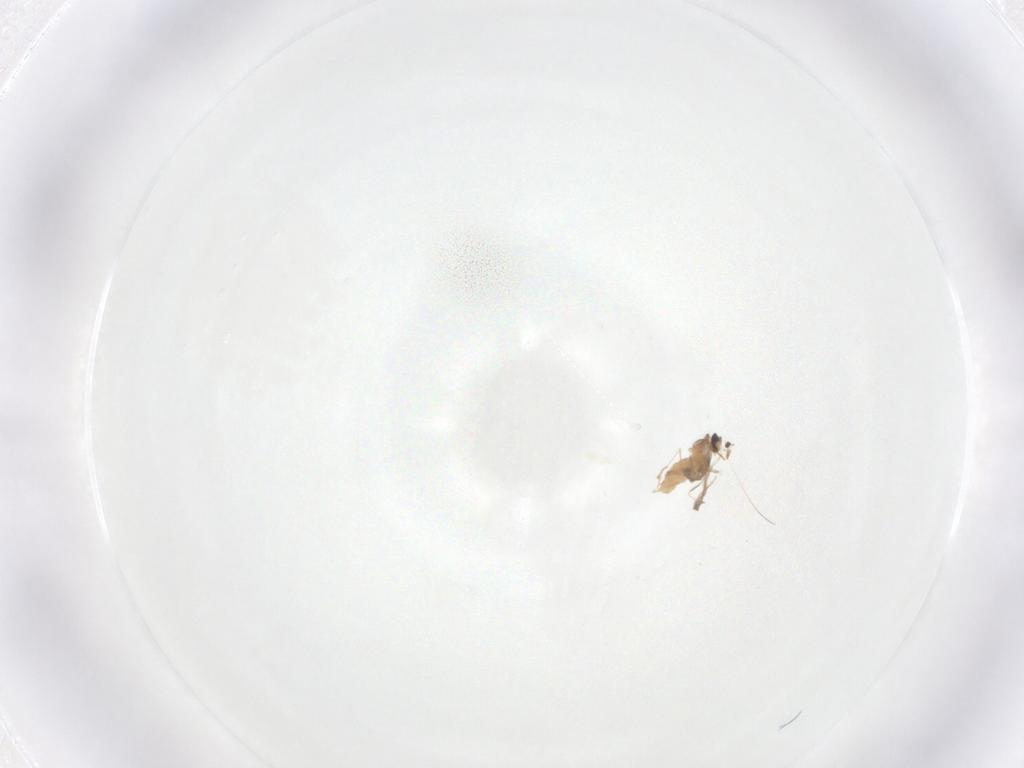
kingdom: Animalia
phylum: Arthropoda
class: Insecta
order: Diptera
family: Cecidomyiidae
